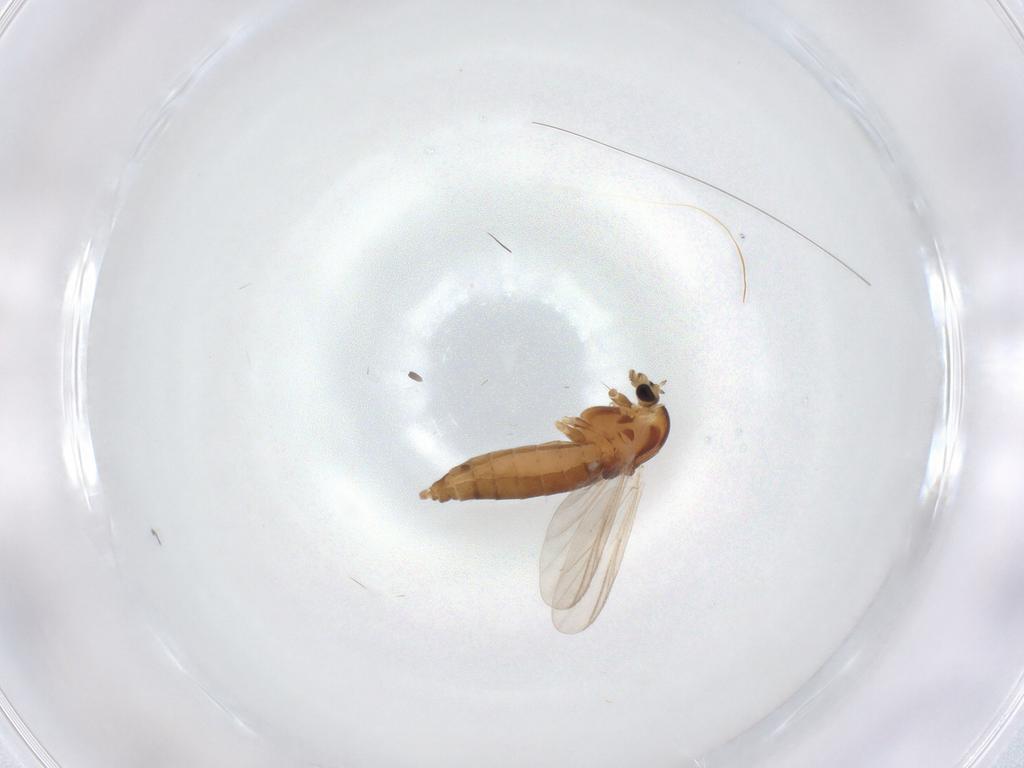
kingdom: Animalia
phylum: Arthropoda
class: Insecta
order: Diptera
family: Chironomidae
